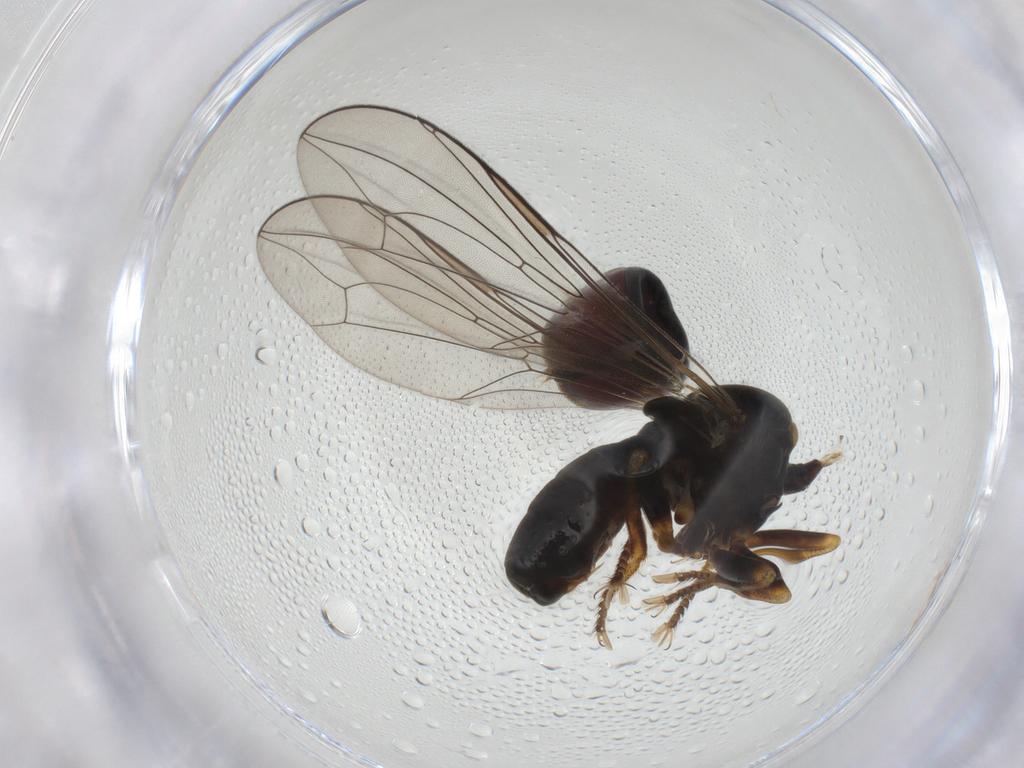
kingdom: Animalia
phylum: Arthropoda
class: Insecta
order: Diptera
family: Pipunculidae
